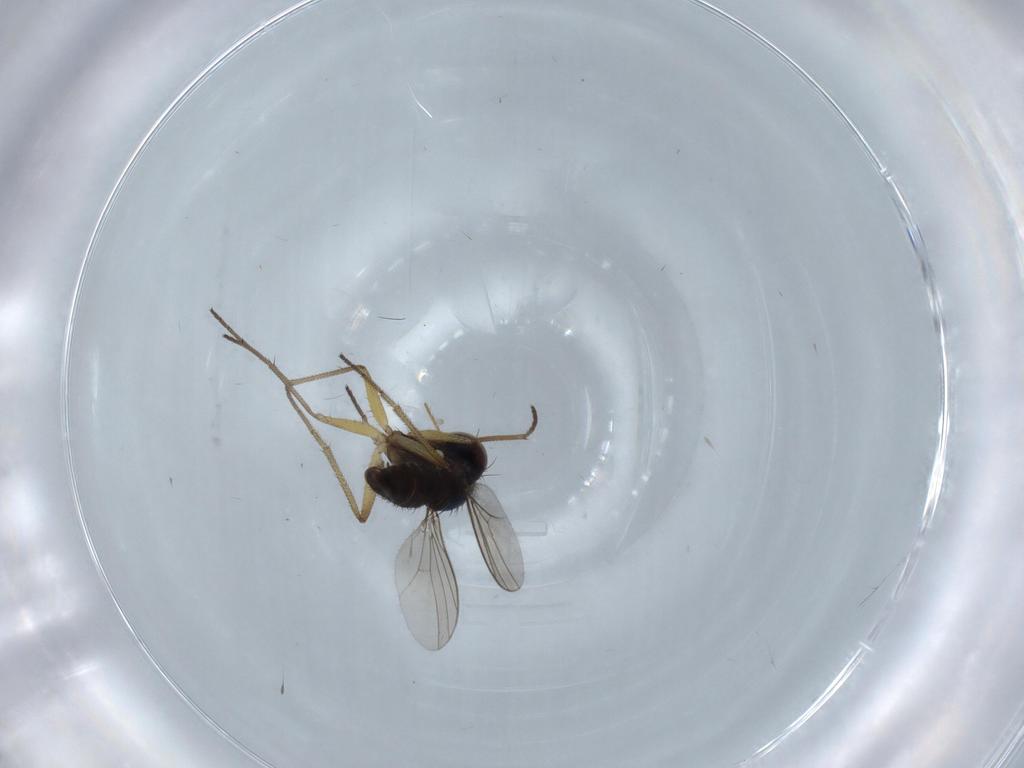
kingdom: Animalia
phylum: Arthropoda
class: Insecta
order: Diptera
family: Dolichopodidae
